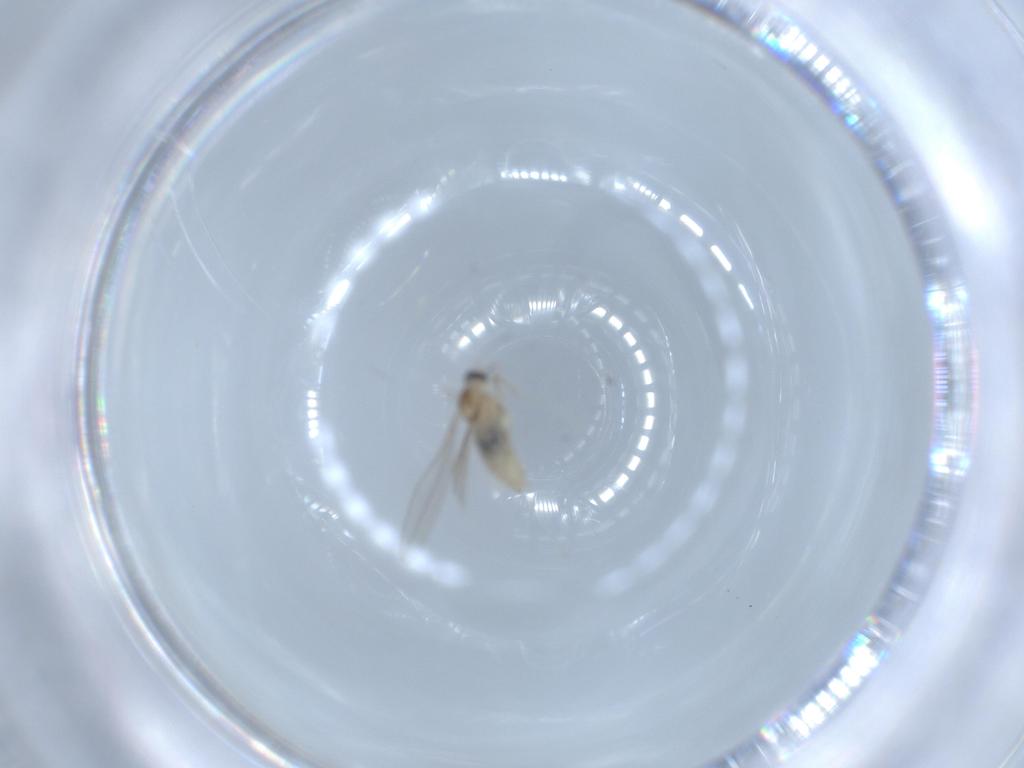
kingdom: Animalia
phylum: Arthropoda
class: Insecta
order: Diptera
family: Cecidomyiidae
